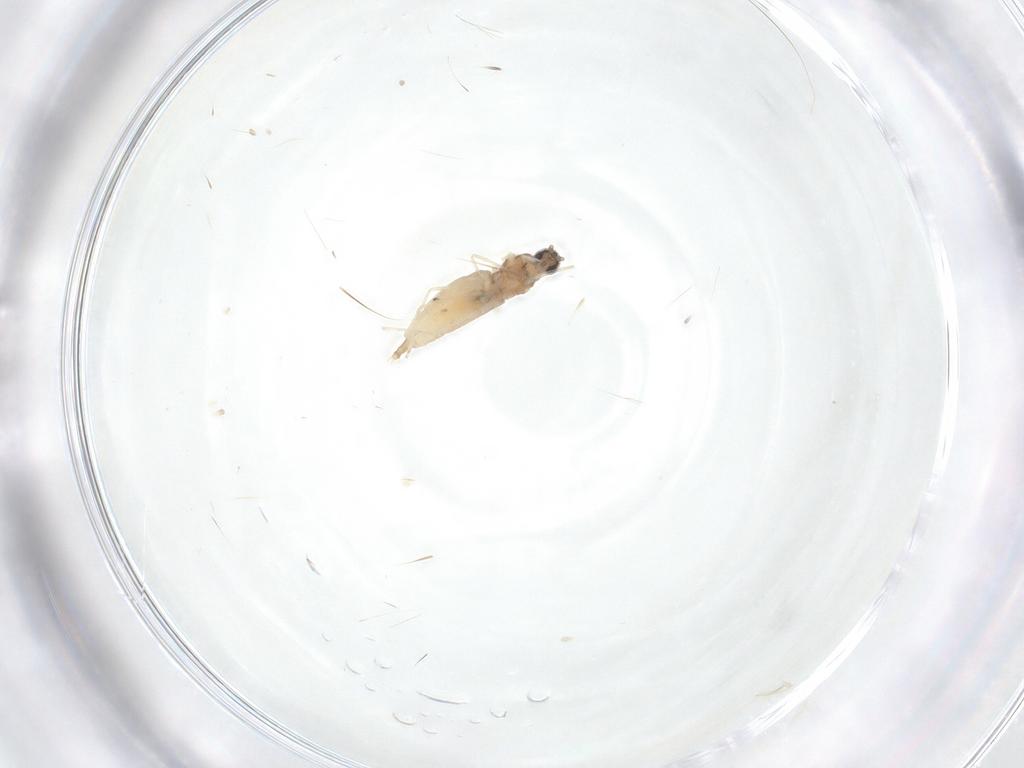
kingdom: Animalia
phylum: Arthropoda
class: Insecta
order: Diptera
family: Cecidomyiidae
